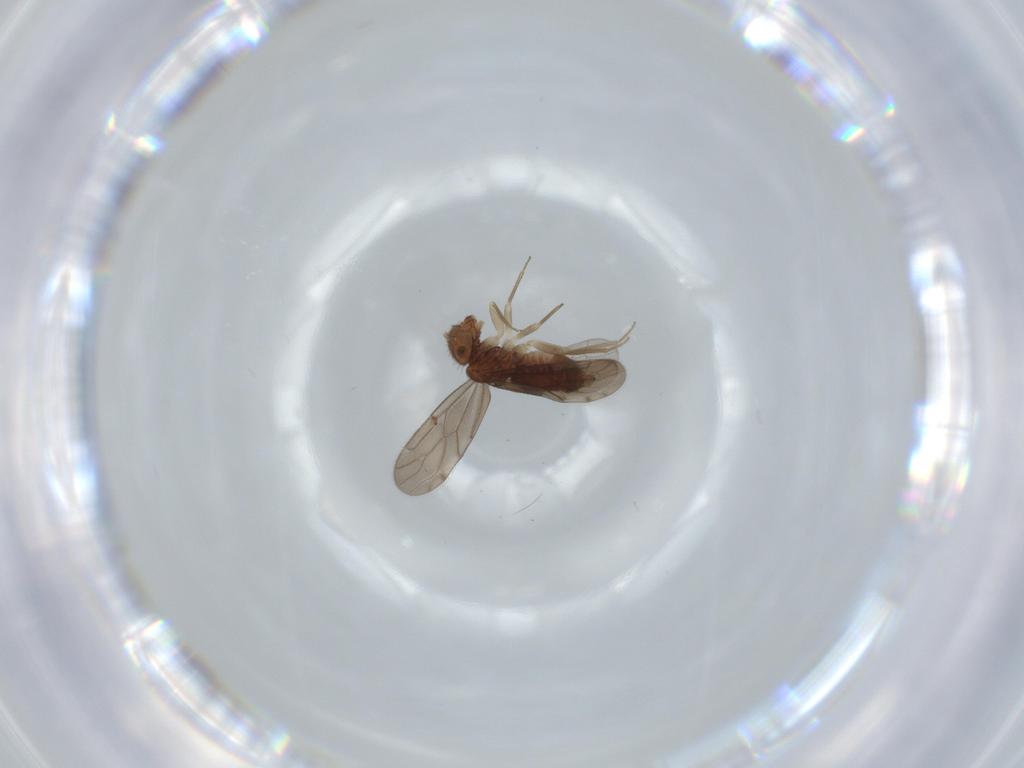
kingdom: Animalia
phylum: Arthropoda
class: Insecta
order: Psocodea
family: Ectopsocidae
